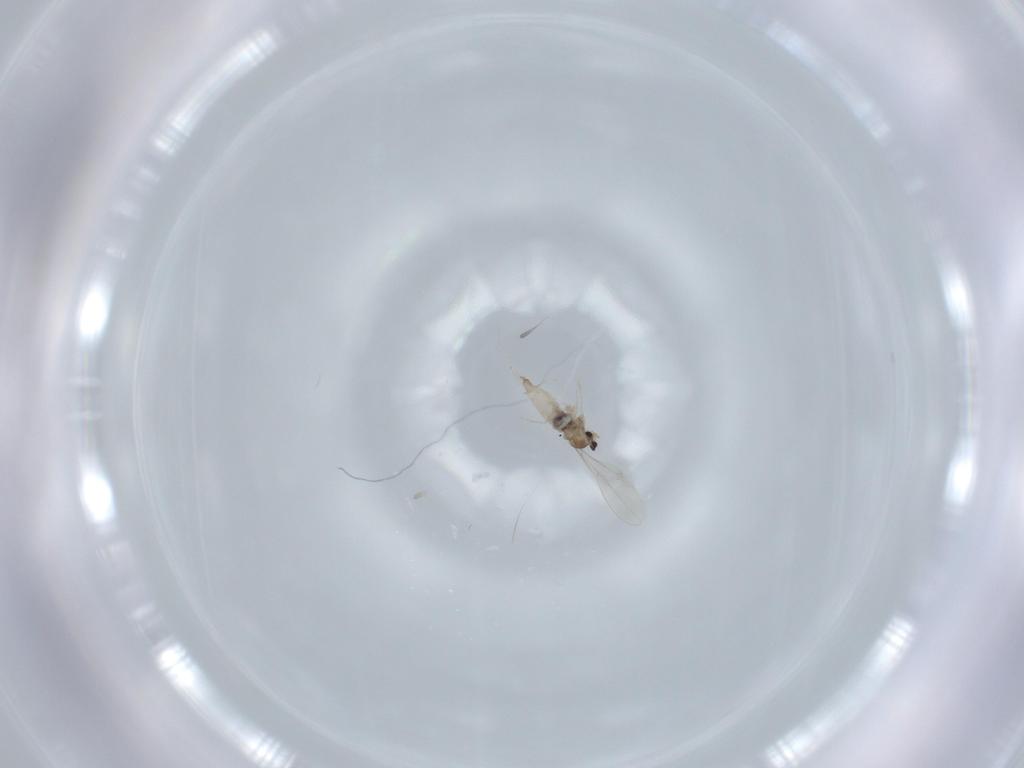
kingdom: Animalia
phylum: Arthropoda
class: Insecta
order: Diptera
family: Cecidomyiidae
